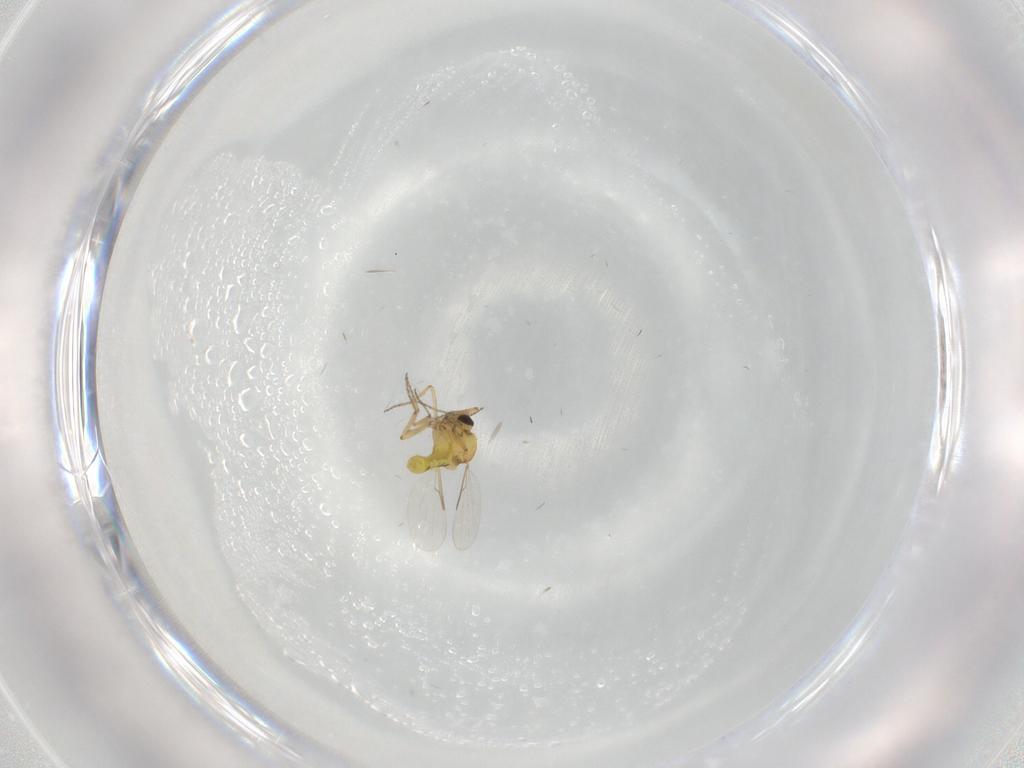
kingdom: Animalia
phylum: Arthropoda
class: Insecta
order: Diptera
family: Ceratopogonidae
